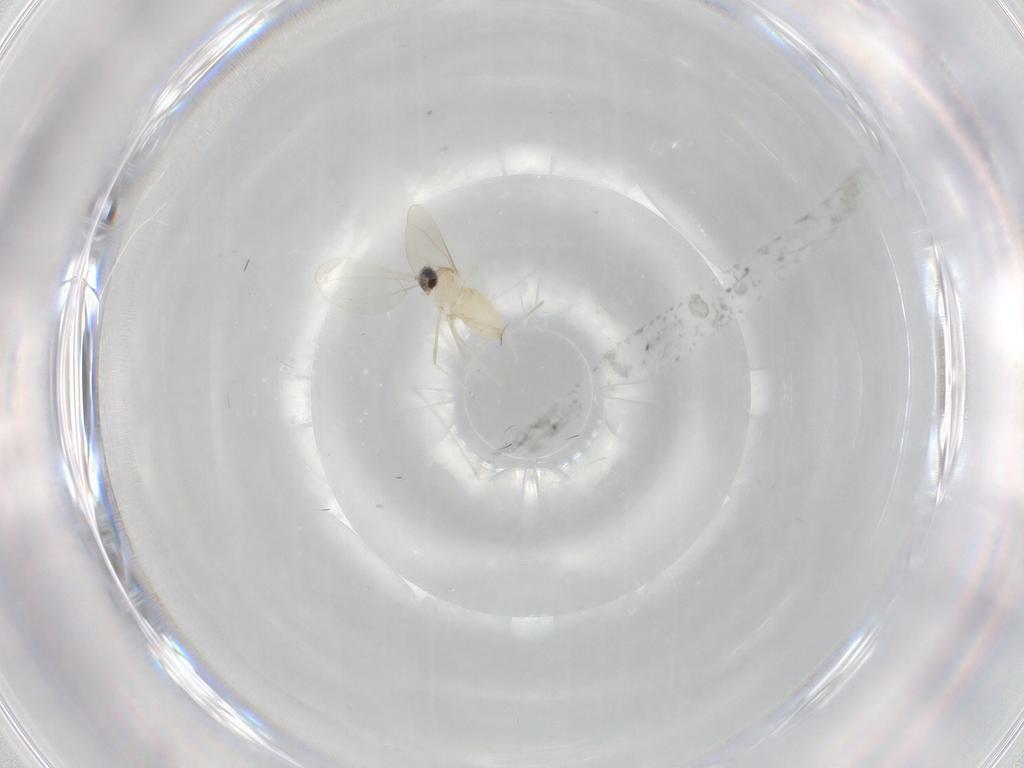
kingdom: Animalia
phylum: Arthropoda
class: Insecta
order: Diptera
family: Cecidomyiidae
